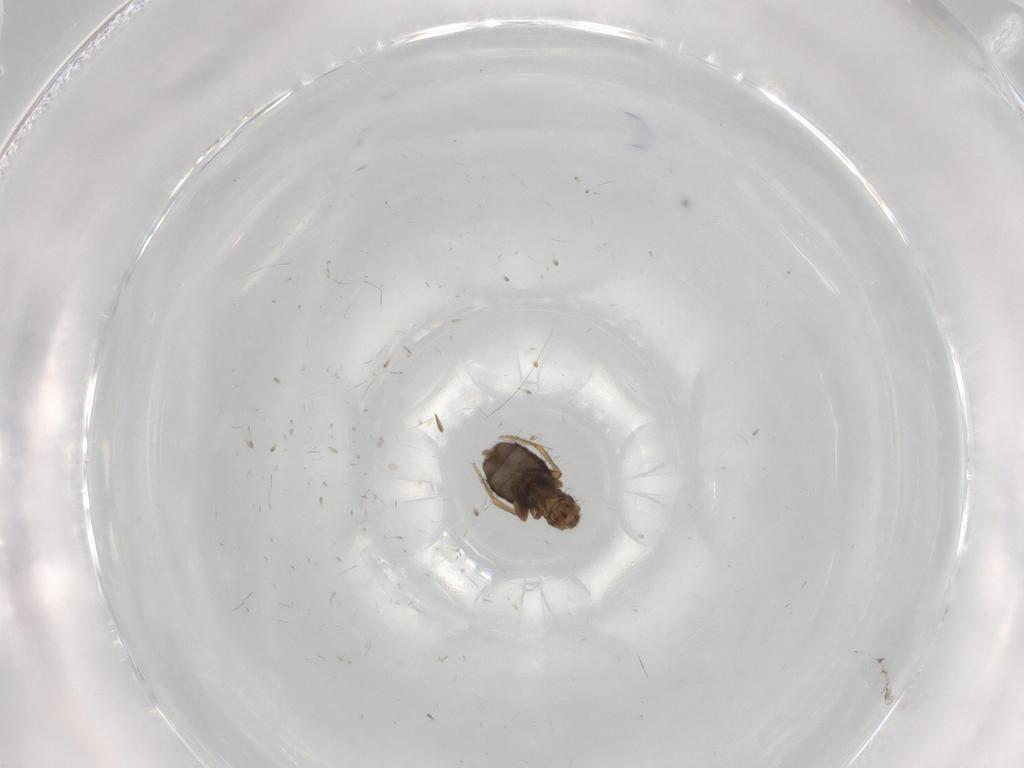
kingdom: Animalia
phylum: Arthropoda
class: Insecta
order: Diptera
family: Phoridae
